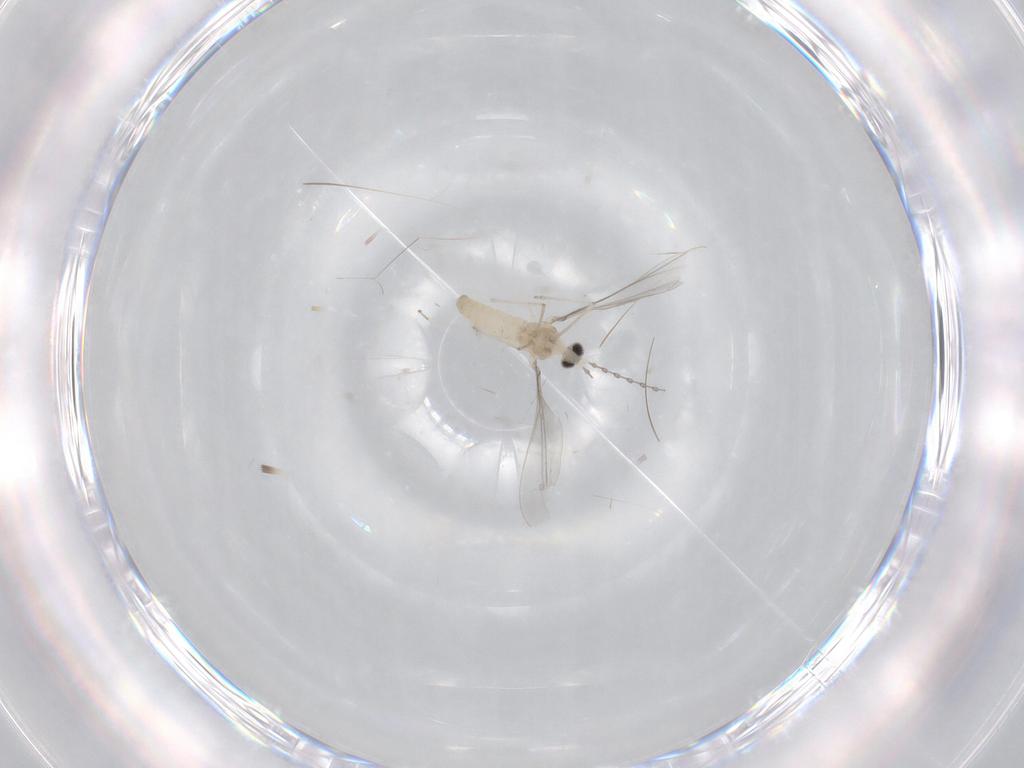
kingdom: Animalia
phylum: Arthropoda
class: Insecta
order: Diptera
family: Cecidomyiidae
